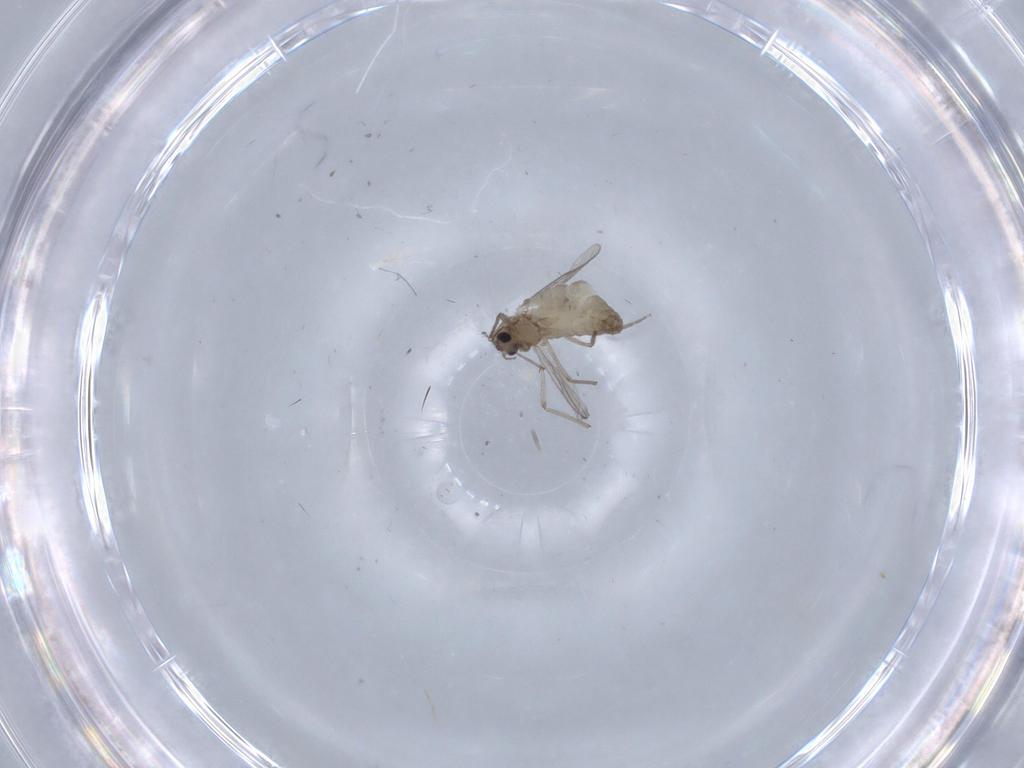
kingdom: Animalia
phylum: Arthropoda
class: Insecta
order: Diptera
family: Chironomidae
